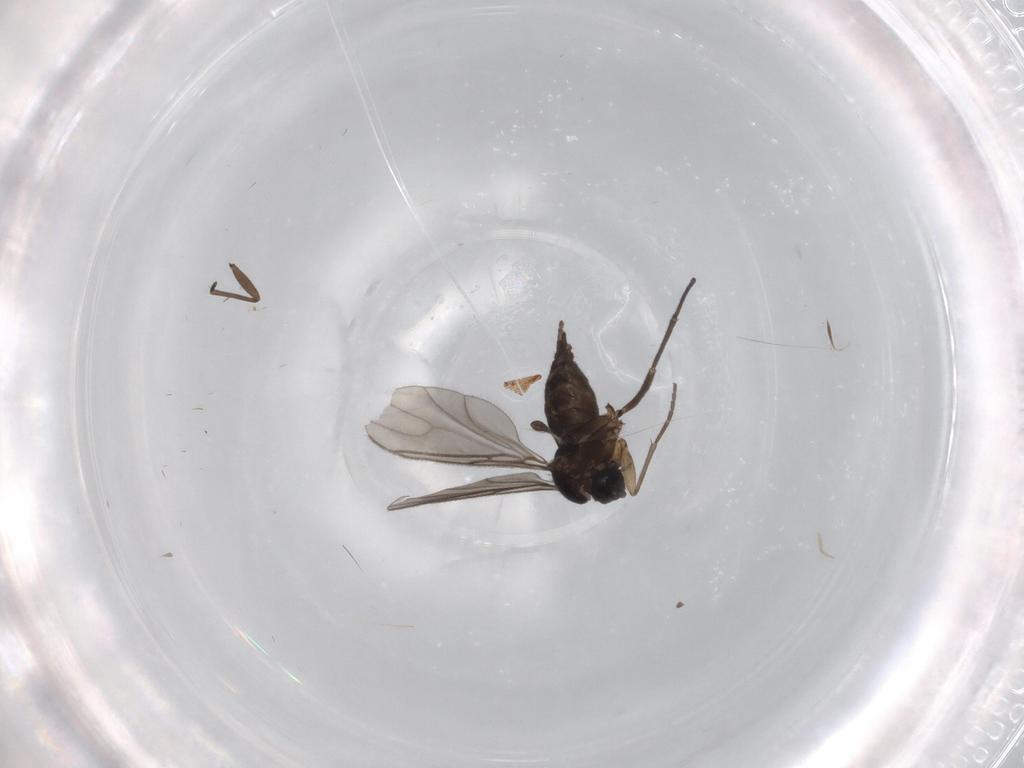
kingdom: Animalia
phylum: Arthropoda
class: Insecta
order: Diptera
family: Sciaridae
